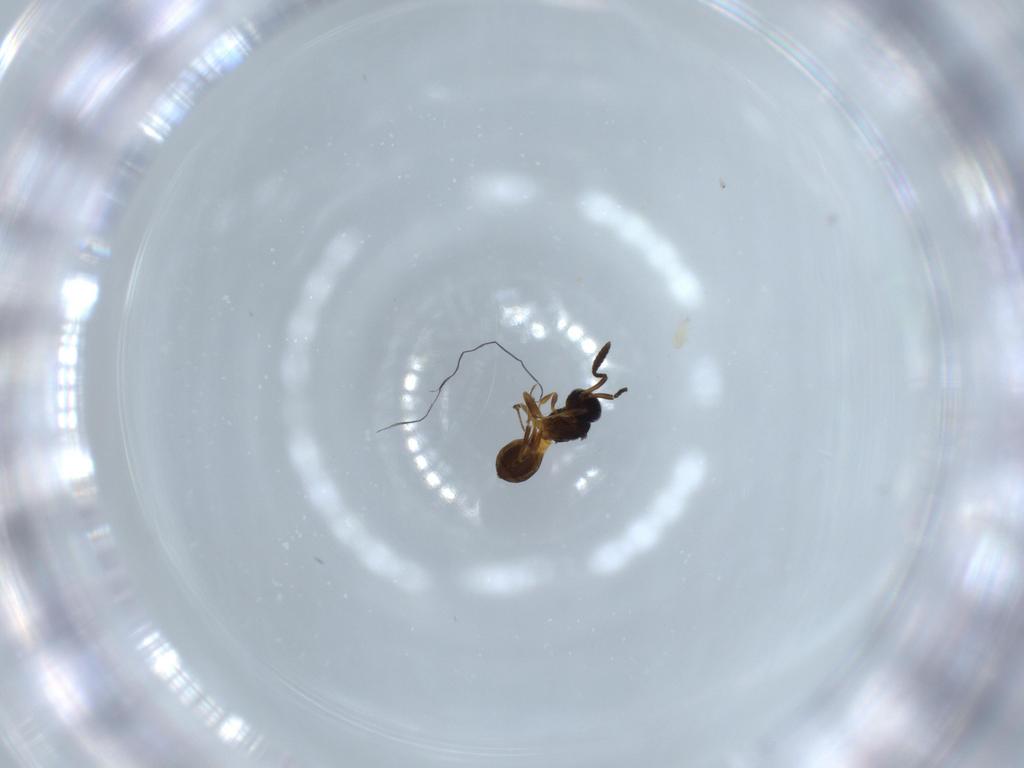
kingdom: Animalia
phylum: Arthropoda
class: Insecta
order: Hymenoptera
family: Scelionidae
